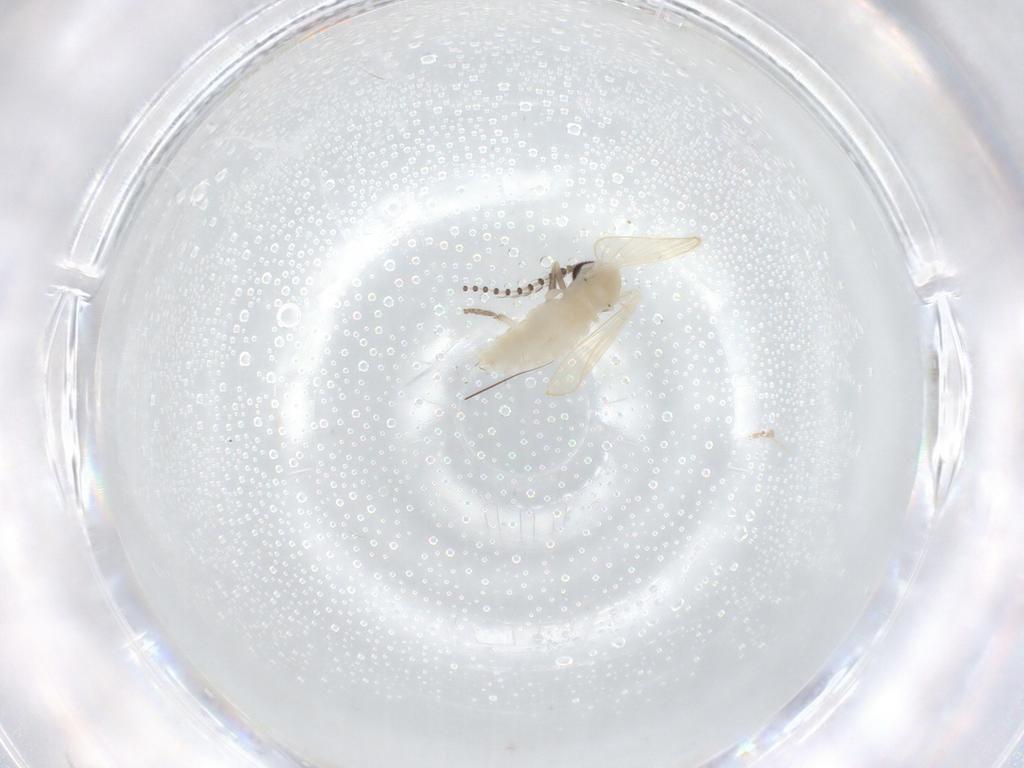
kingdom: Animalia
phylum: Arthropoda
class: Insecta
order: Diptera
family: Psychodidae
